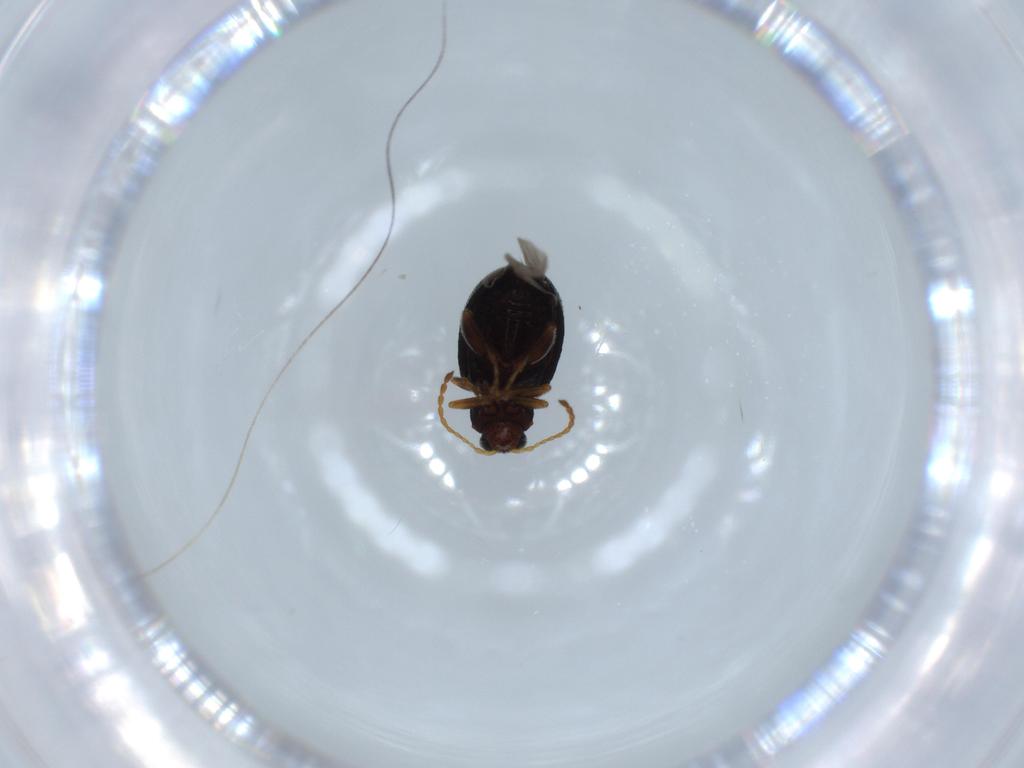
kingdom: Animalia
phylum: Arthropoda
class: Insecta
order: Coleoptera
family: Chrysomelidae
